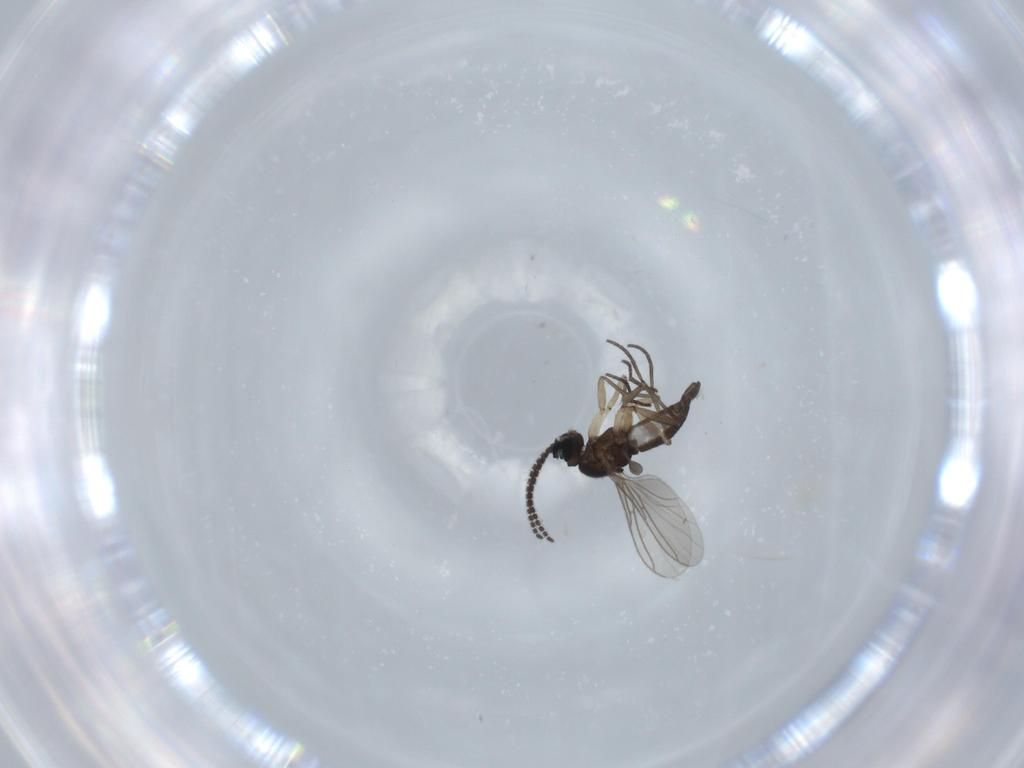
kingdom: Animalia
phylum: Arthropoda
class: Insecta
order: Diptera
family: Sciaridae
